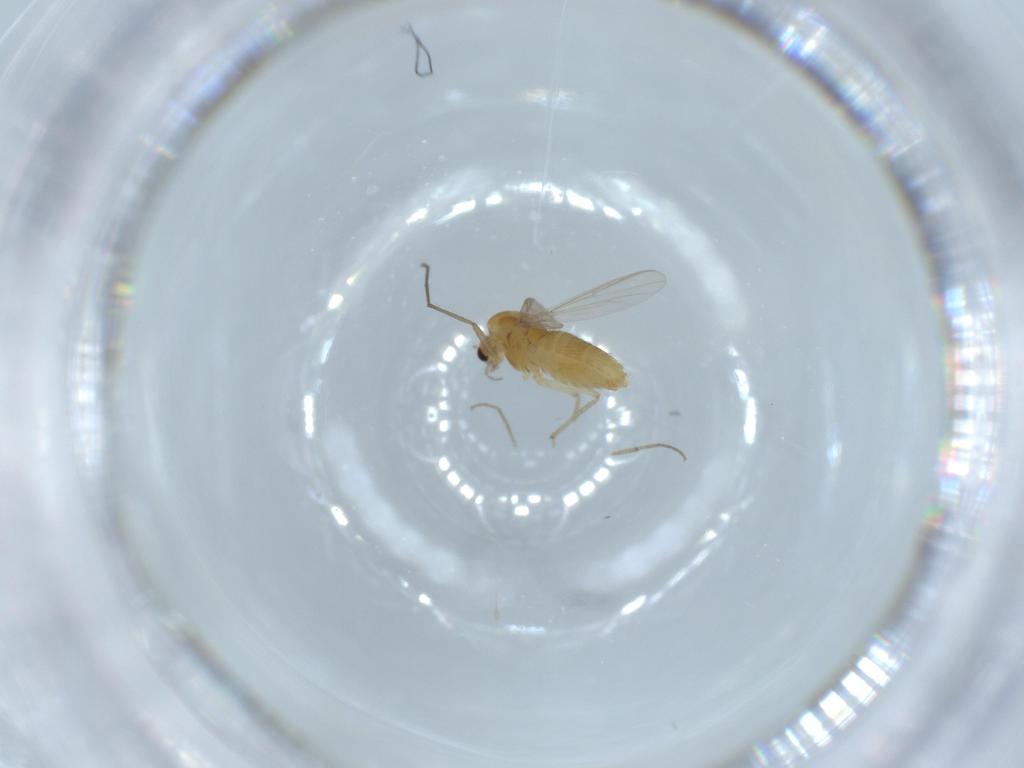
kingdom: Animalia
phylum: Arthropoda
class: Insecta
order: Diptera
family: Chironomidae
